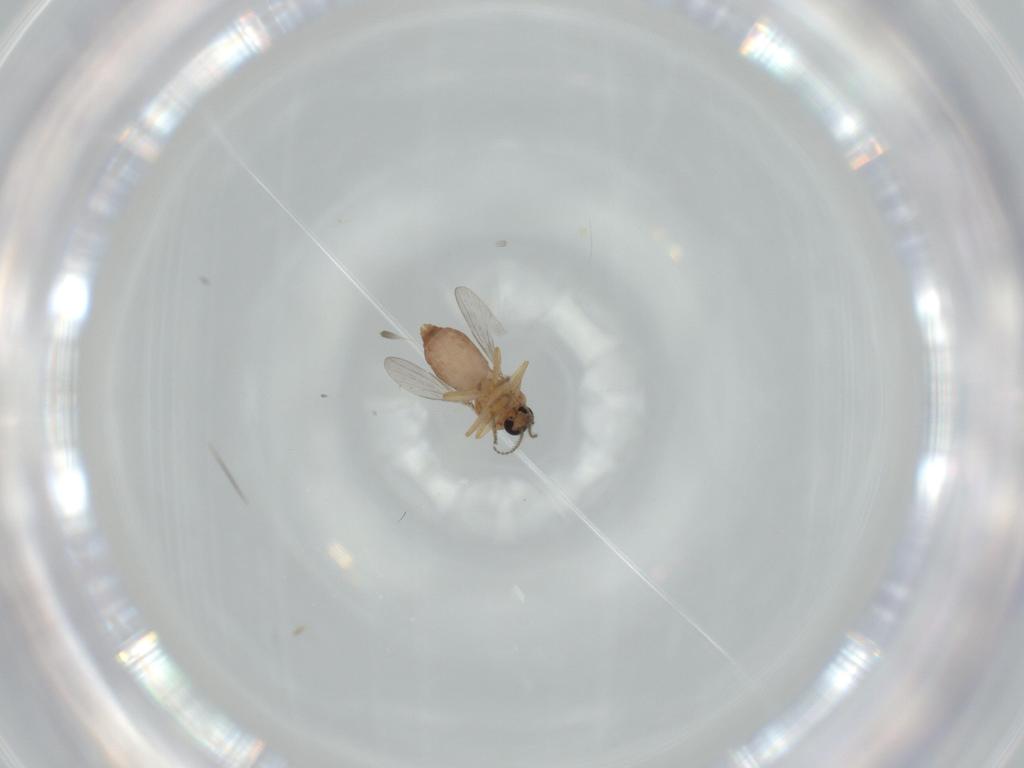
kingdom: Animalia
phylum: Arthropoda
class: Insecta
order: Diptera
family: Ceratopogonidae
